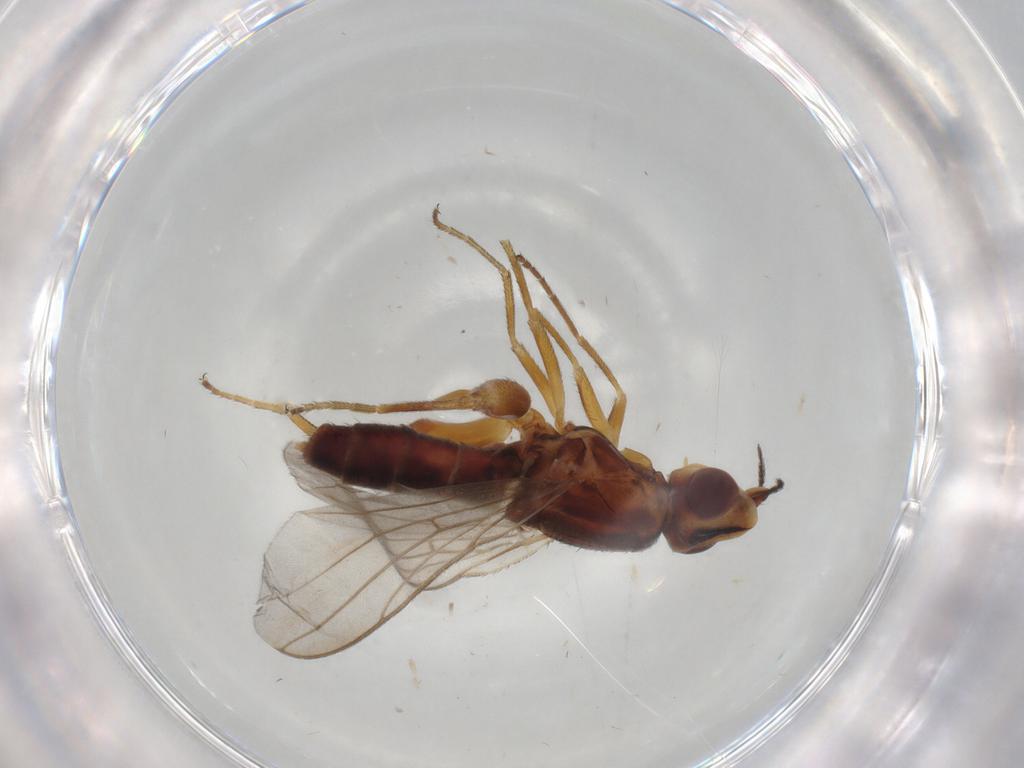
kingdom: Animalia
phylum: Arthropoda
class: Insecta
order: Diptera
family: Chloropidae
